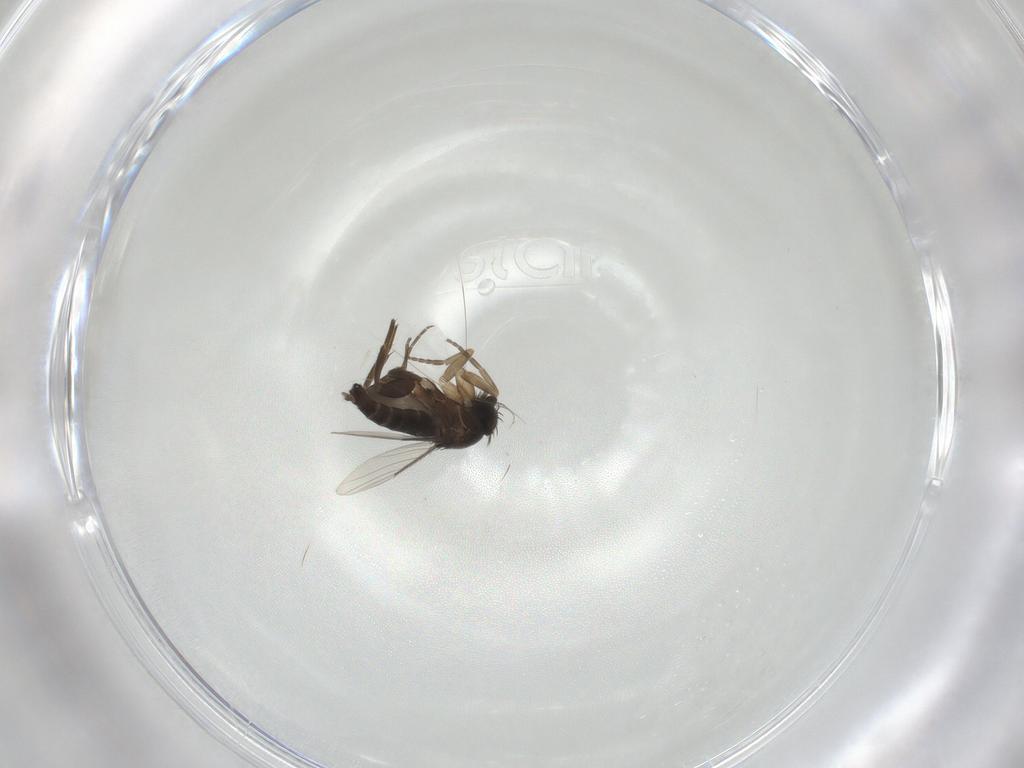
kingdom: Animalia
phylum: Arthropoda
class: Insecta
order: Diptera
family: Phoridae
